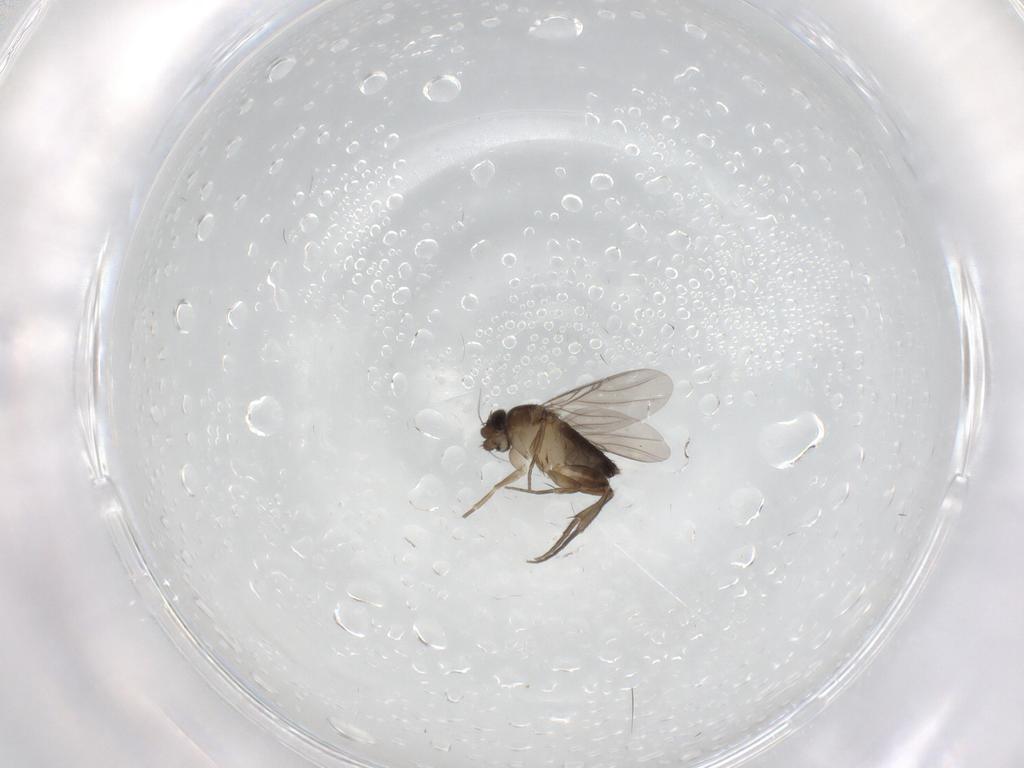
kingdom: Animalia
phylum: Arthropoda
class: Insecta
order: Diptera
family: Phoridae
